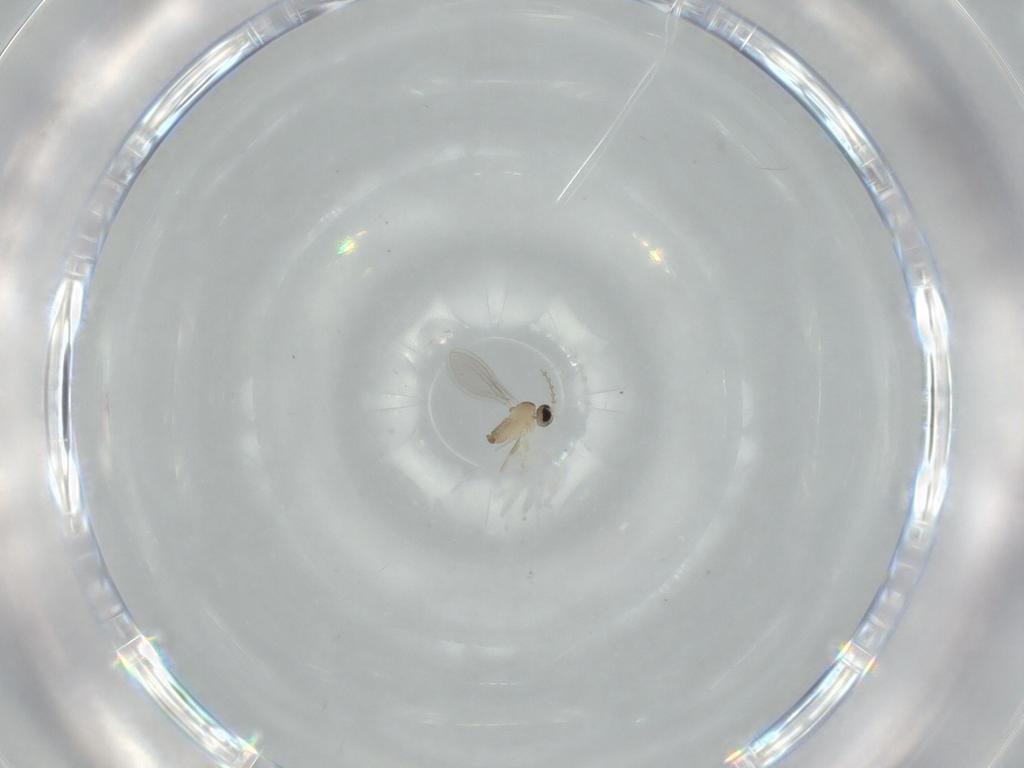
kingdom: Animalia
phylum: Arthropoda
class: Insecta
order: Diptera
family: Cecidomyiidae
